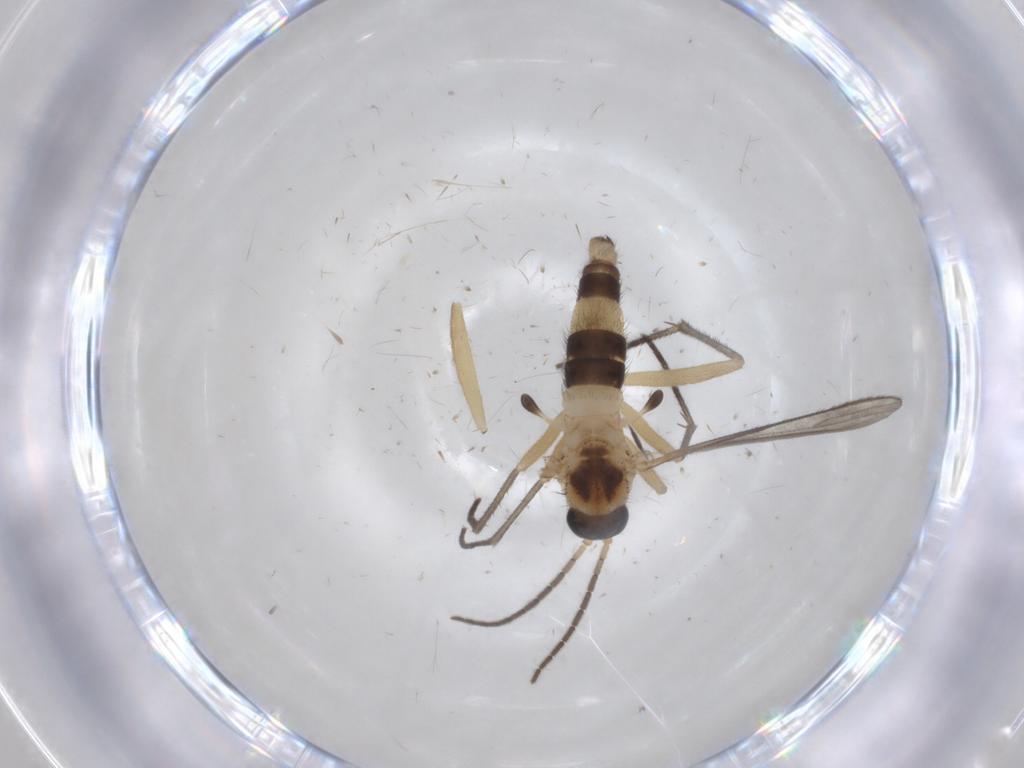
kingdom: Animalia
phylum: Arthropoda
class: Insecta
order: Diptera
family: Sciaridae
